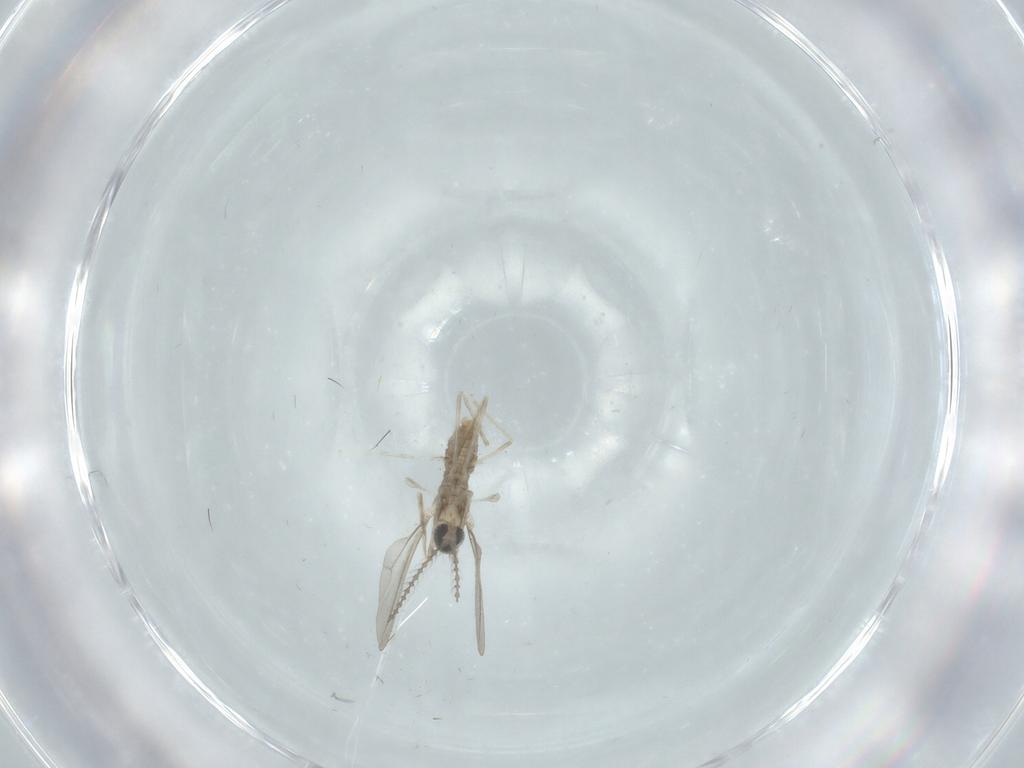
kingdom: Animalia
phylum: Arthropoda
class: Insecta
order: Diptera
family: Cecidomyiidae
